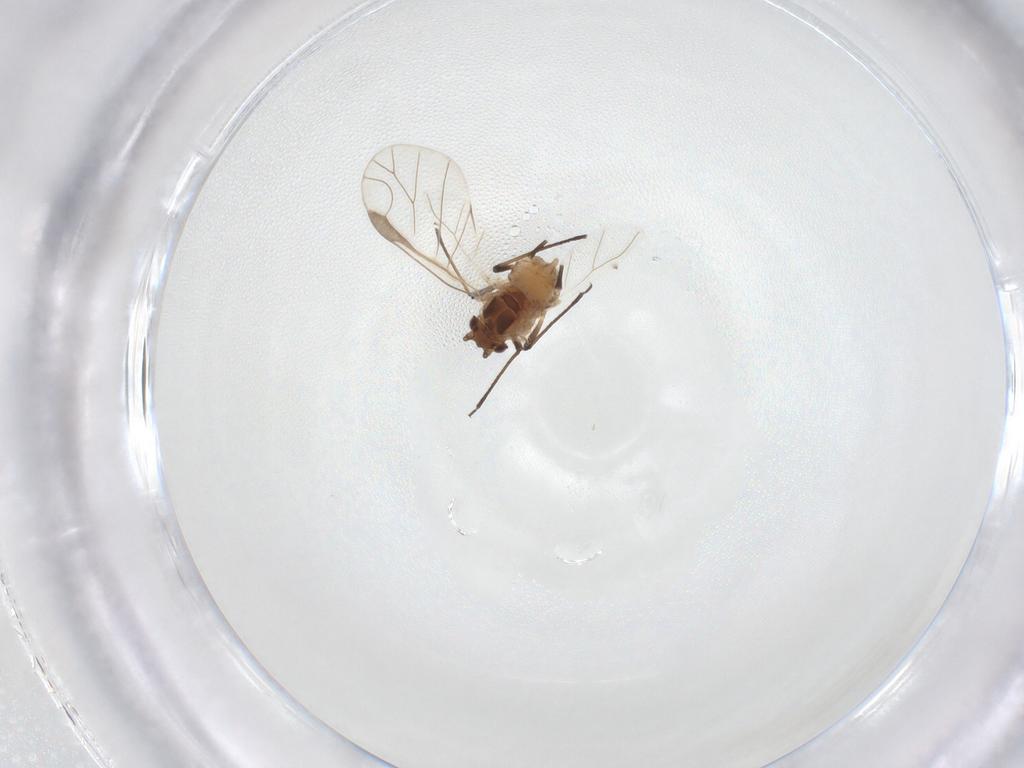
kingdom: Animalia
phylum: Arthropoda
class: Insecta
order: Hemiptera
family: Aphididae
